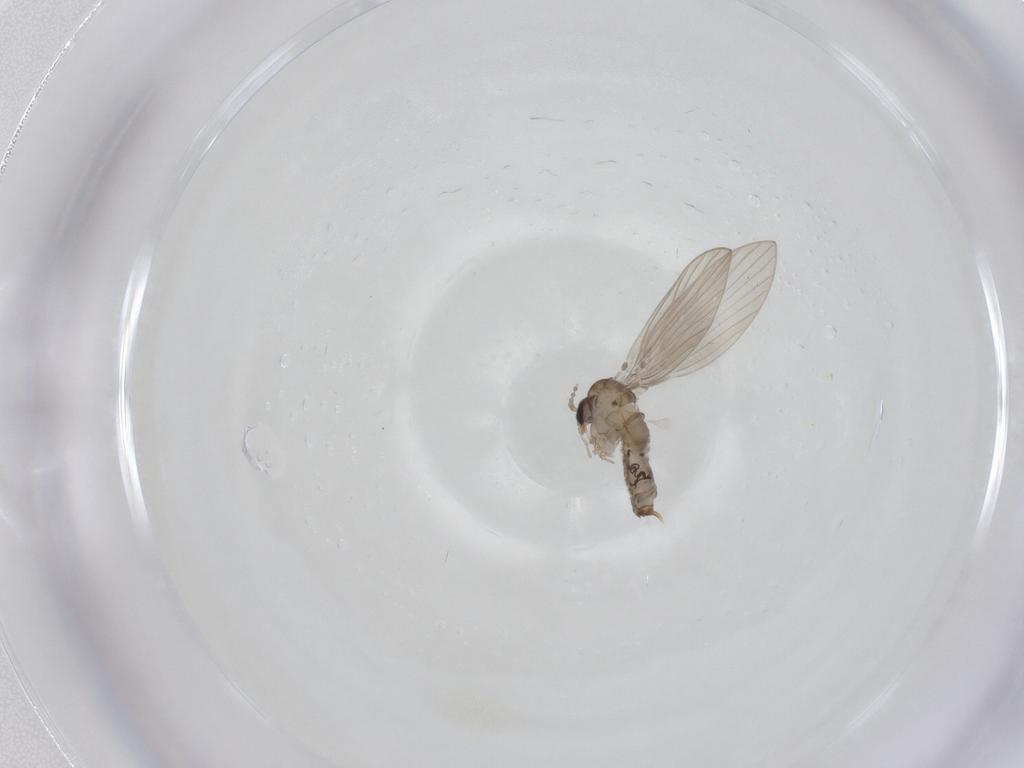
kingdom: Animalia
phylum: Arthropoda
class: Insecta
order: Diptera
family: Psychodidae
